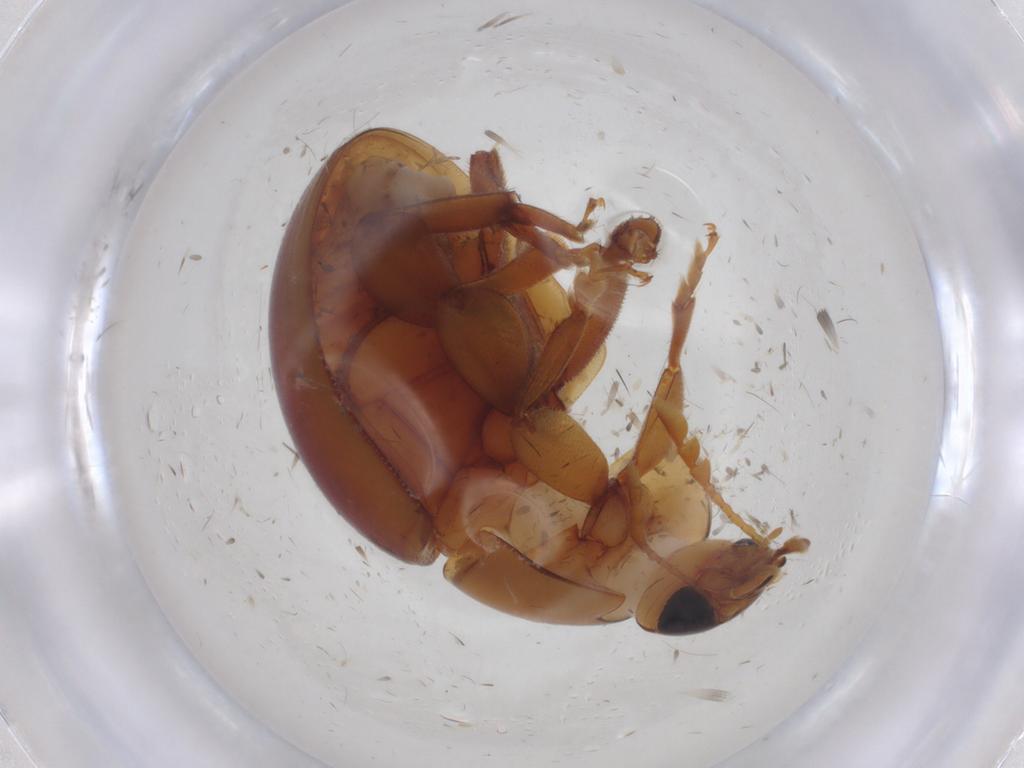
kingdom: Animalia
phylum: Arthropoda
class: Insecta
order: Coleoptera
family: Phalacridae
